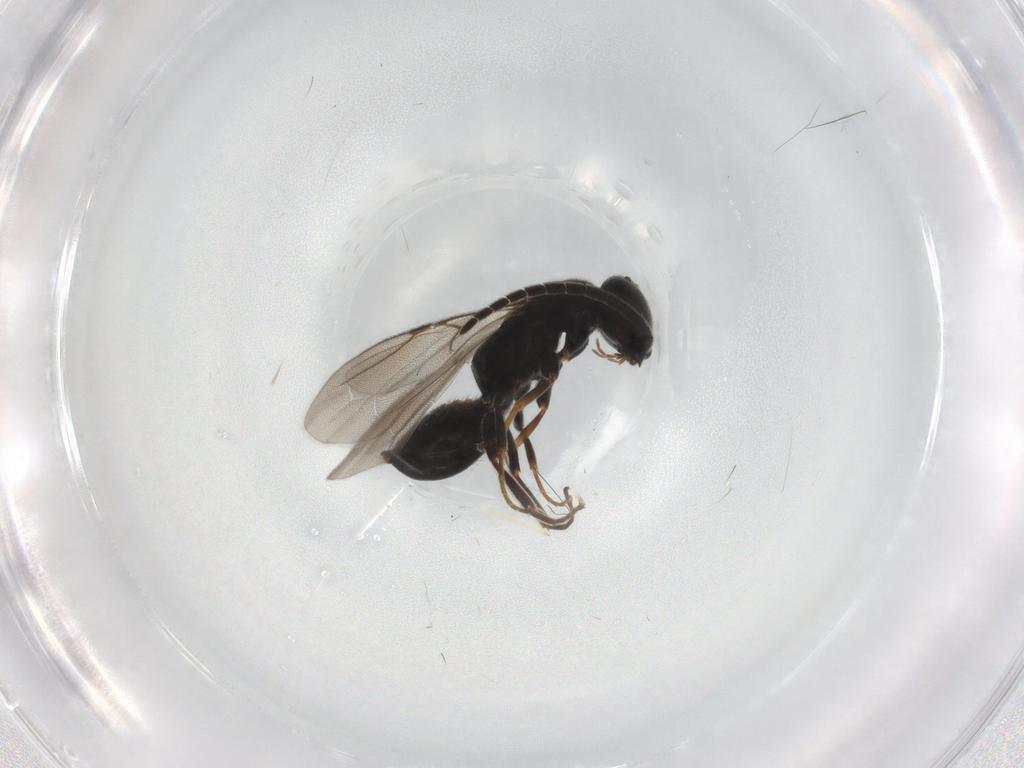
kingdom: Animalia
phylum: Arthropoda
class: Insecta
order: Hymenoptera
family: Bethylidae
